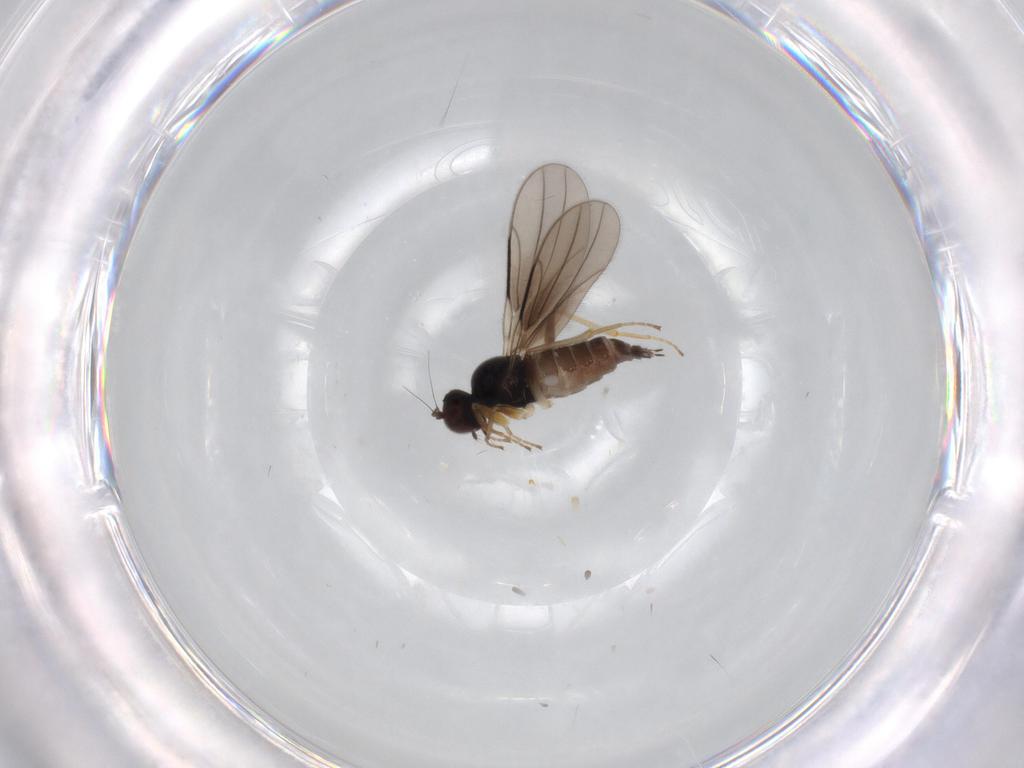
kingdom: Animalia
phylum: Arthropoda
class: Insecta
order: Diptera
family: Hybotidae
